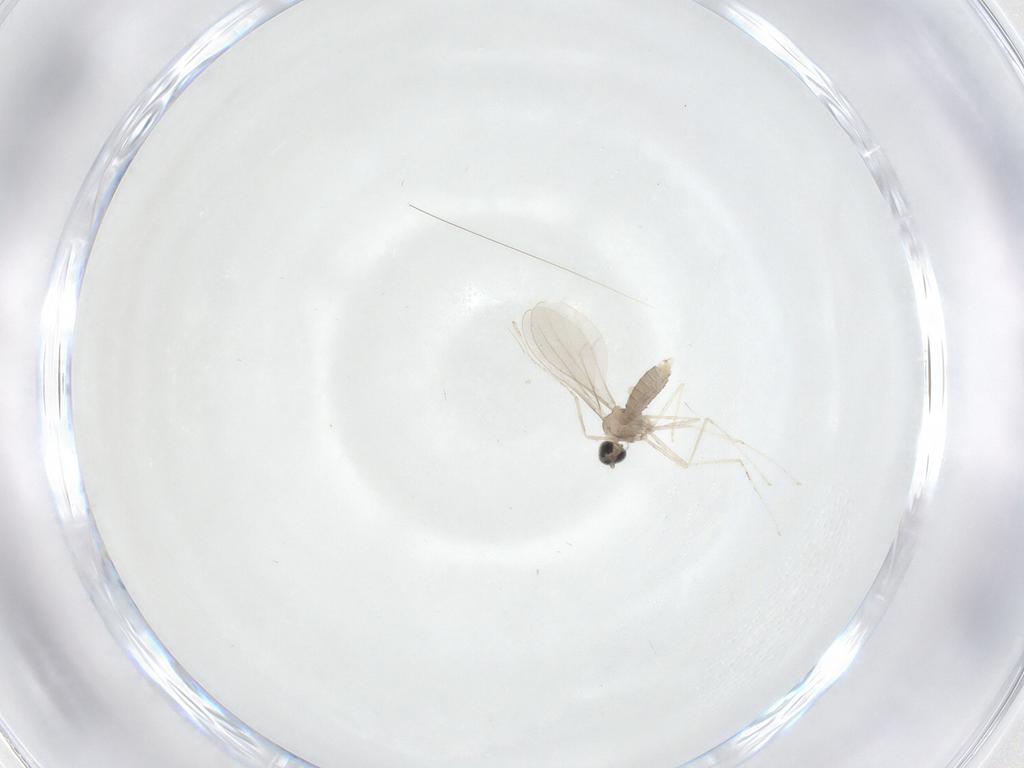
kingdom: Animalia
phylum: Arthropoda
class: Insecta
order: Diptera
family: Cecidomyiidae
